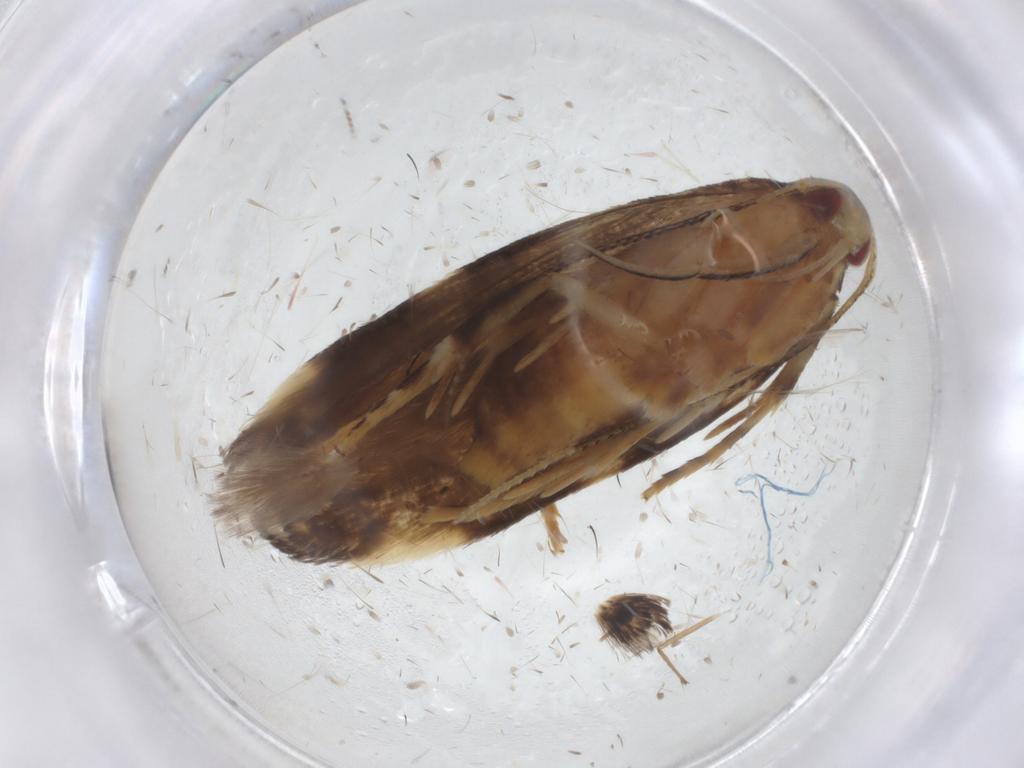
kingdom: Animalia
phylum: Arthropoda
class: Insecta
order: Lepidoptera
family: Cosmopterigidae
